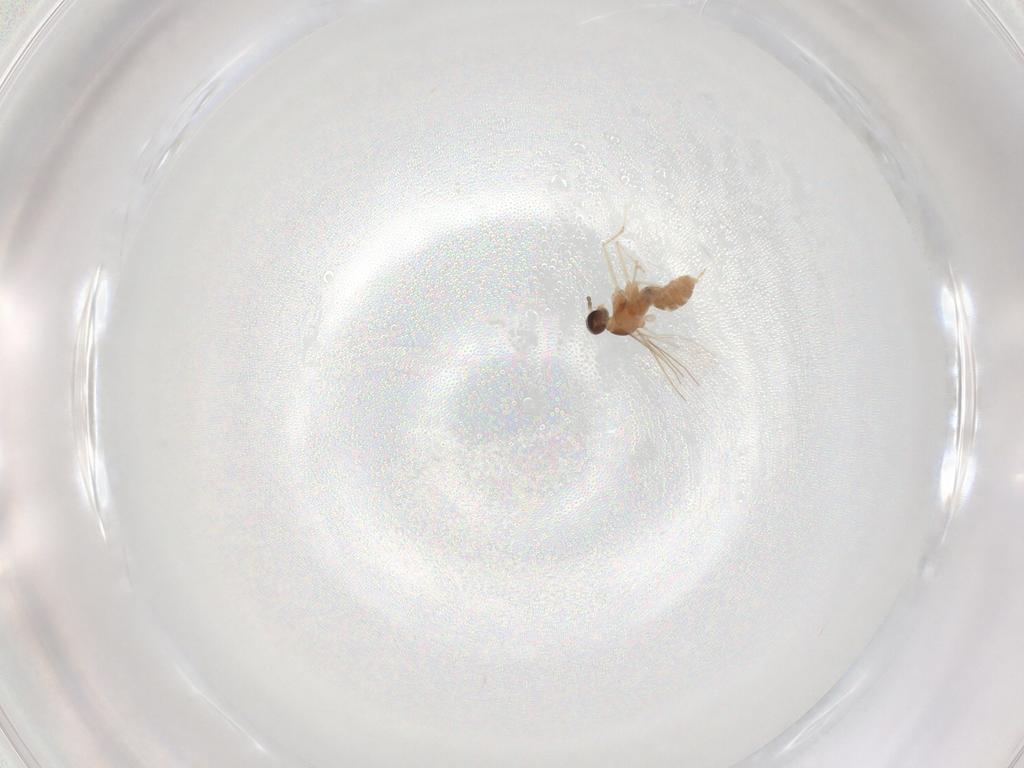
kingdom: Animalia
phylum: Arthropoda
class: Insecta
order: Diptera
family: Cecidomyiidae
